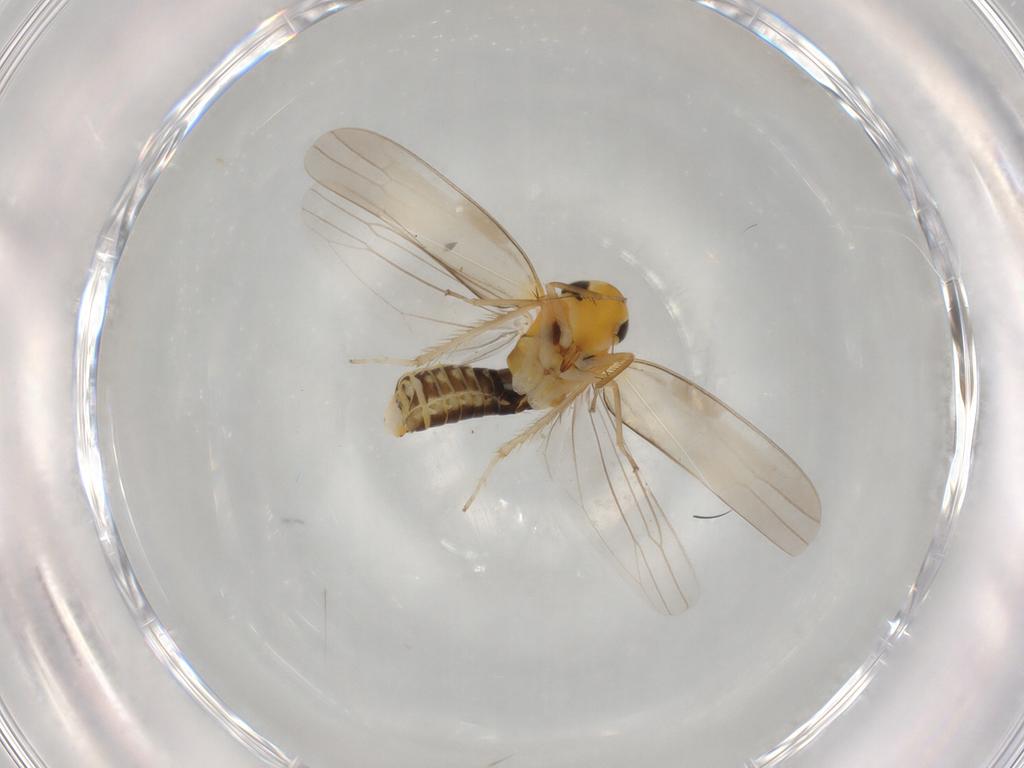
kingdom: Animalia
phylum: Arthropoda
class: Insecta
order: Hemiptera
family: Cicadellidae
